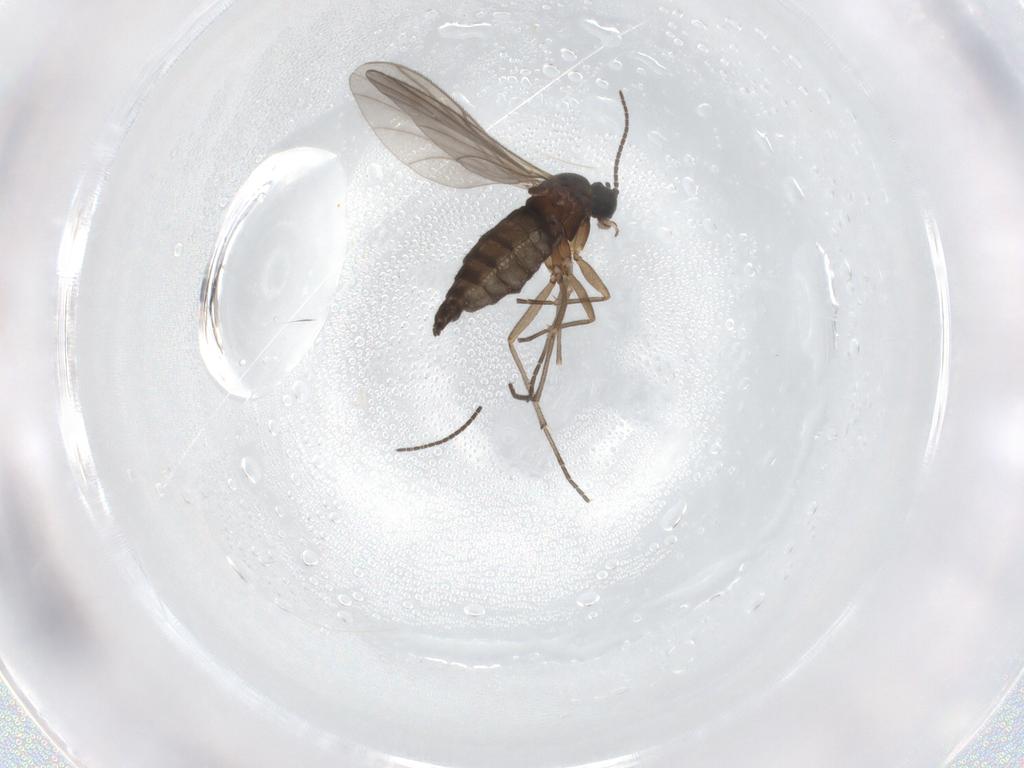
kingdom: Animalia
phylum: Arthropoda
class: Insecta
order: Diptera
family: Sciaridae
